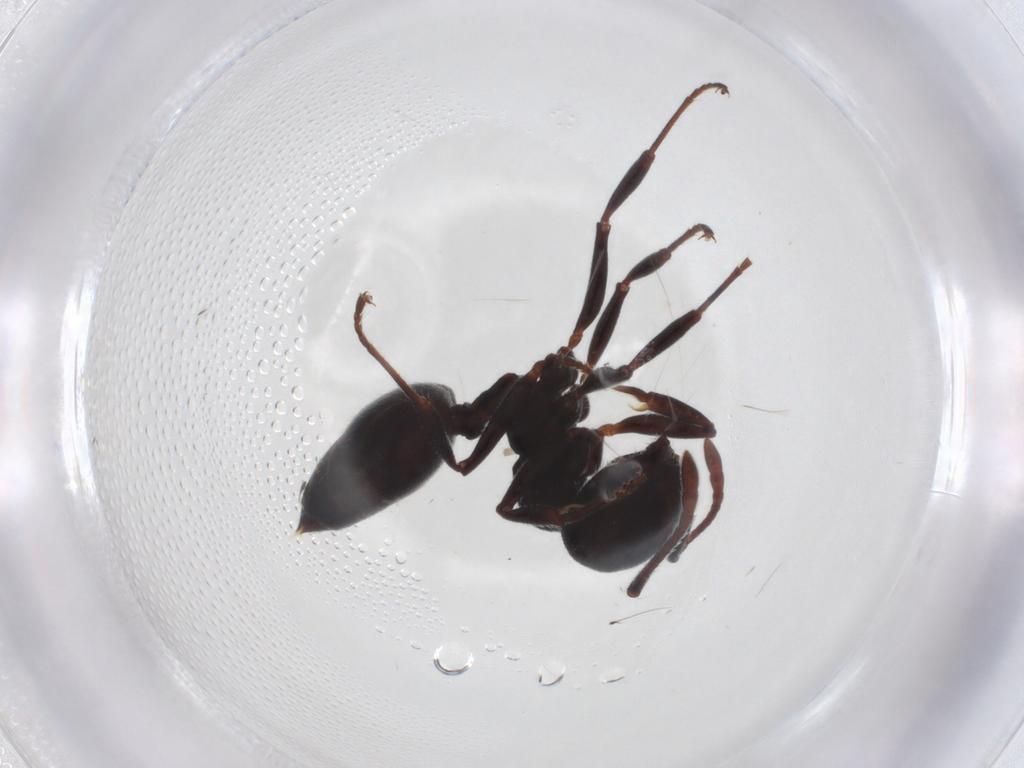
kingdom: Animalia
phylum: Arthropoda
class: Insecta
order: Hymenoptera
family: Formicidae
